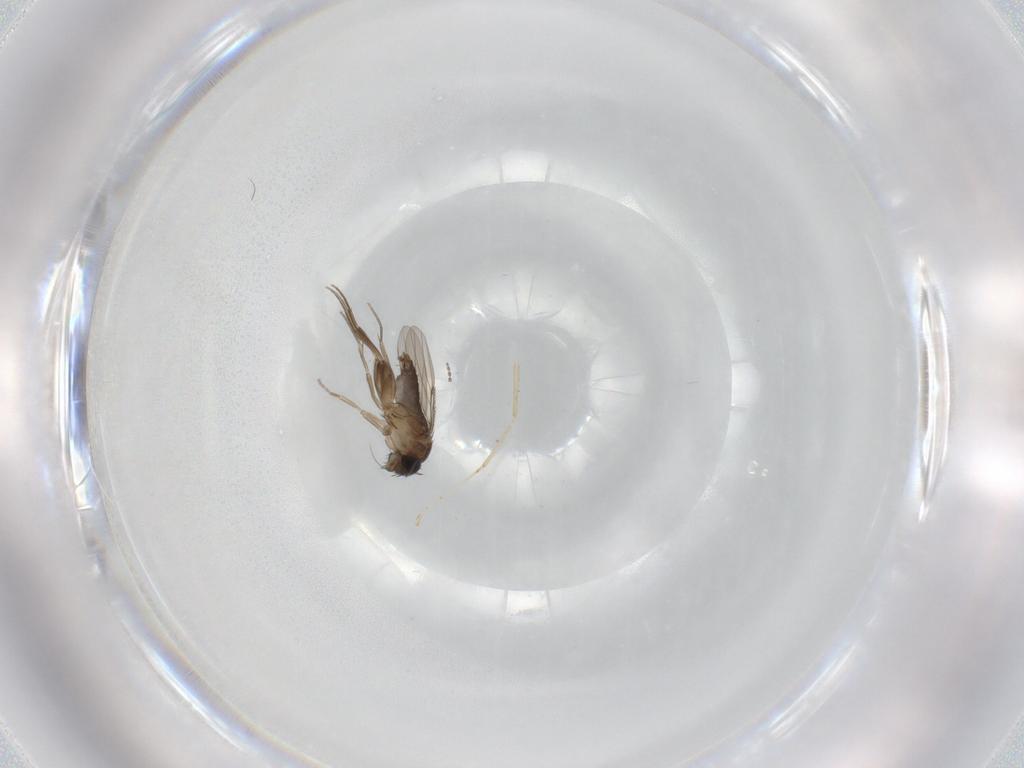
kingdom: Animalia
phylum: Arthropoda
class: Insecta
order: Diptera
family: Phoridae
